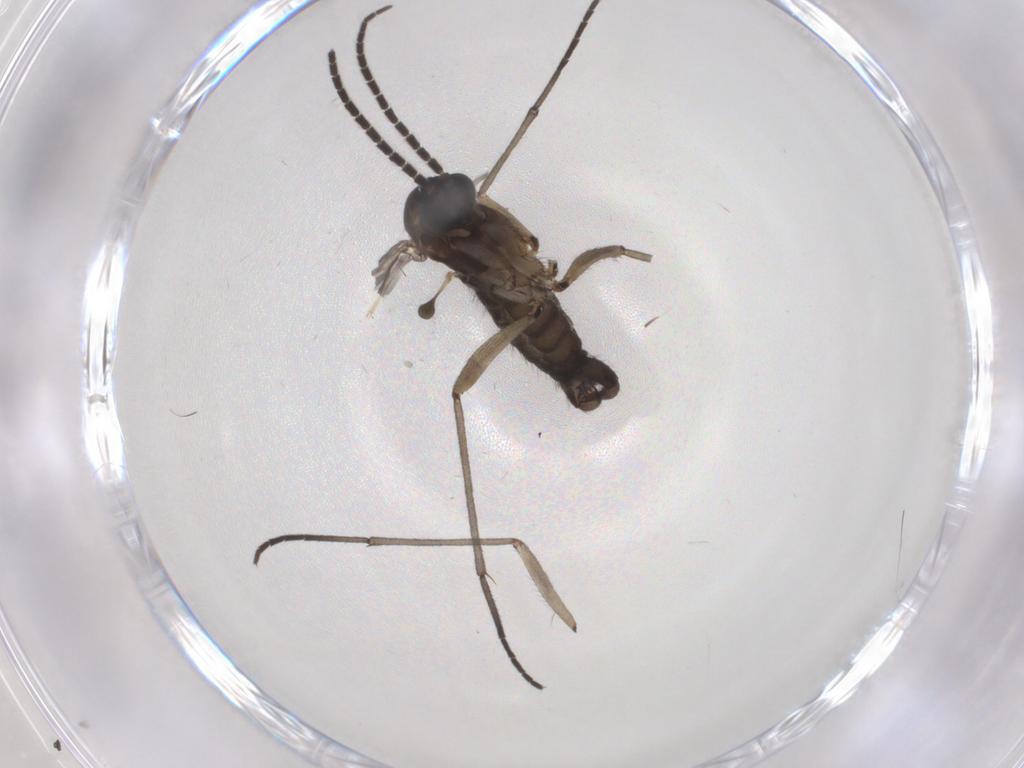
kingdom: Animalia
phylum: Arthropoda
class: Insecta
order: Diptera
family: Sciaridae
